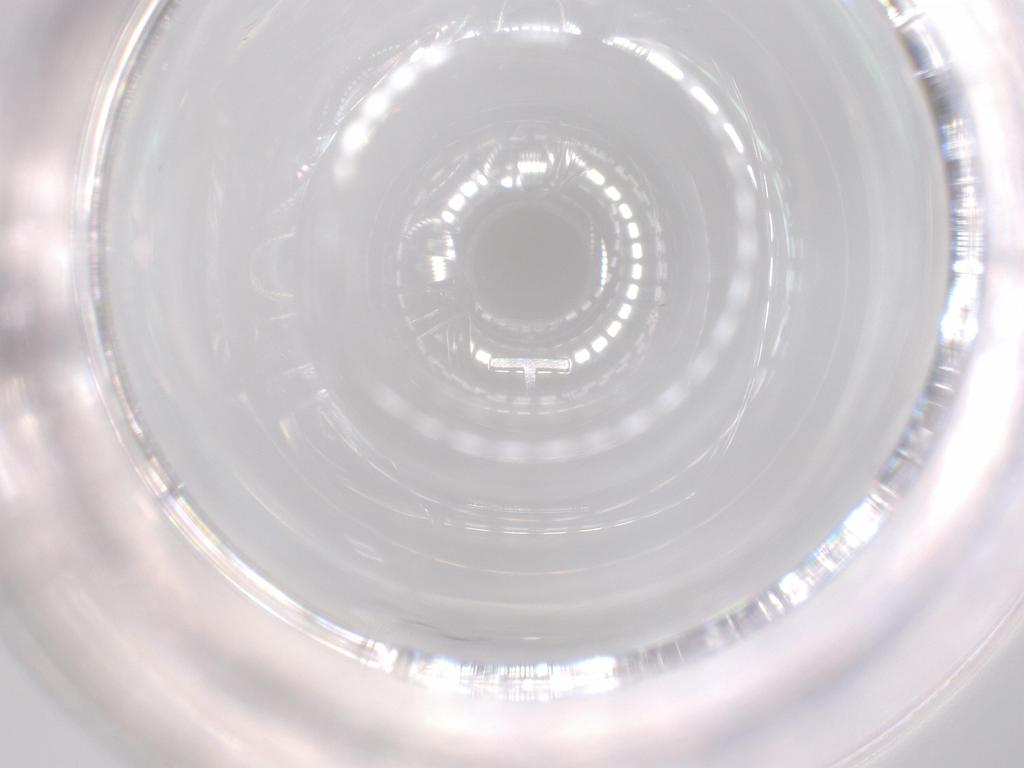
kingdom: Animalia
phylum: Arthropoda
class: Insecta
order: Coleoptera
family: Coccinellidae
